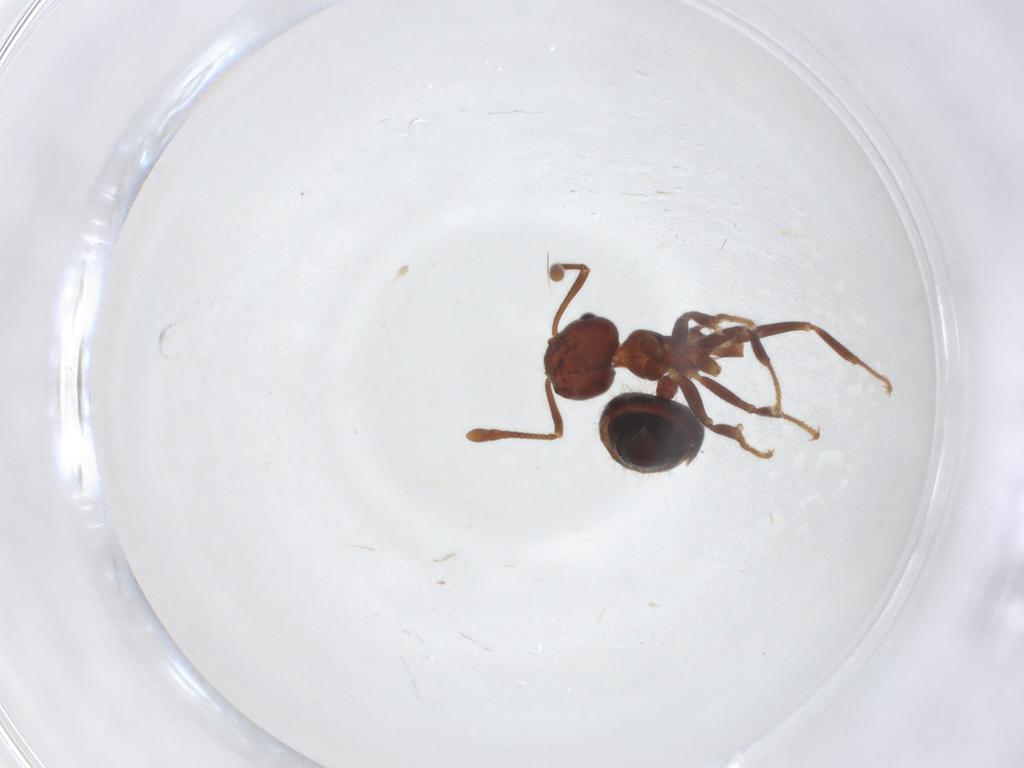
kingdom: Animalia
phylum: Arthropoda
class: Insecta
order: Hymenoptera
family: Formicidae
